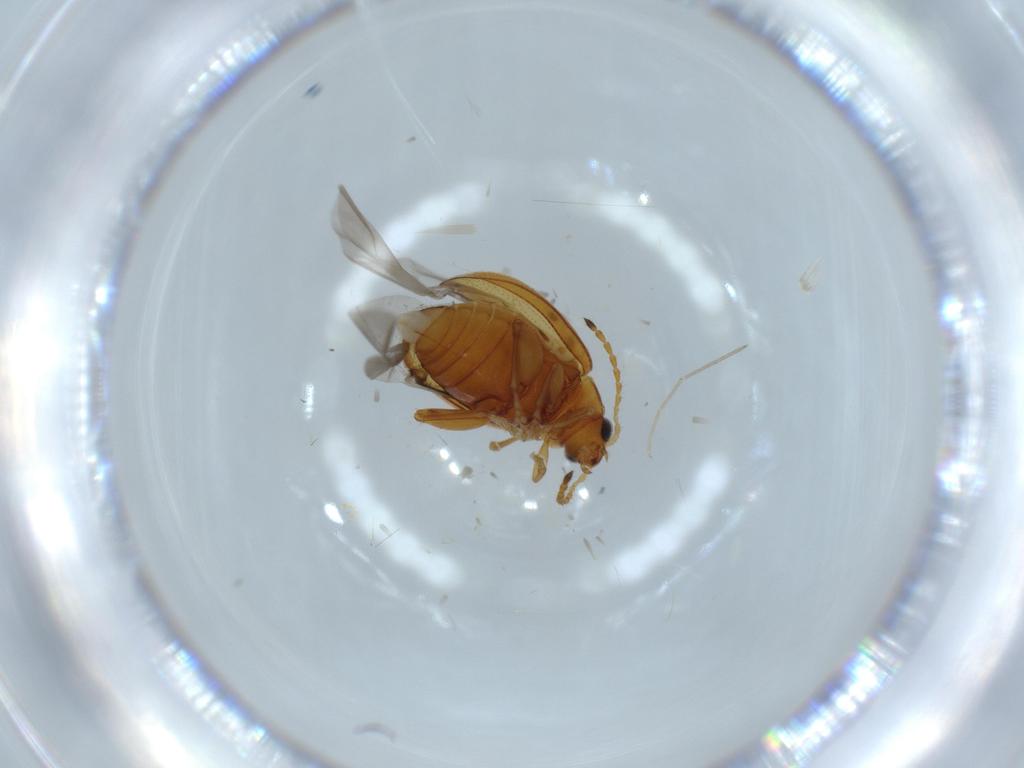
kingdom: Animalia
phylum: Arthropoda
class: Insecta
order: Coleoptera
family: Chrysomelidae
